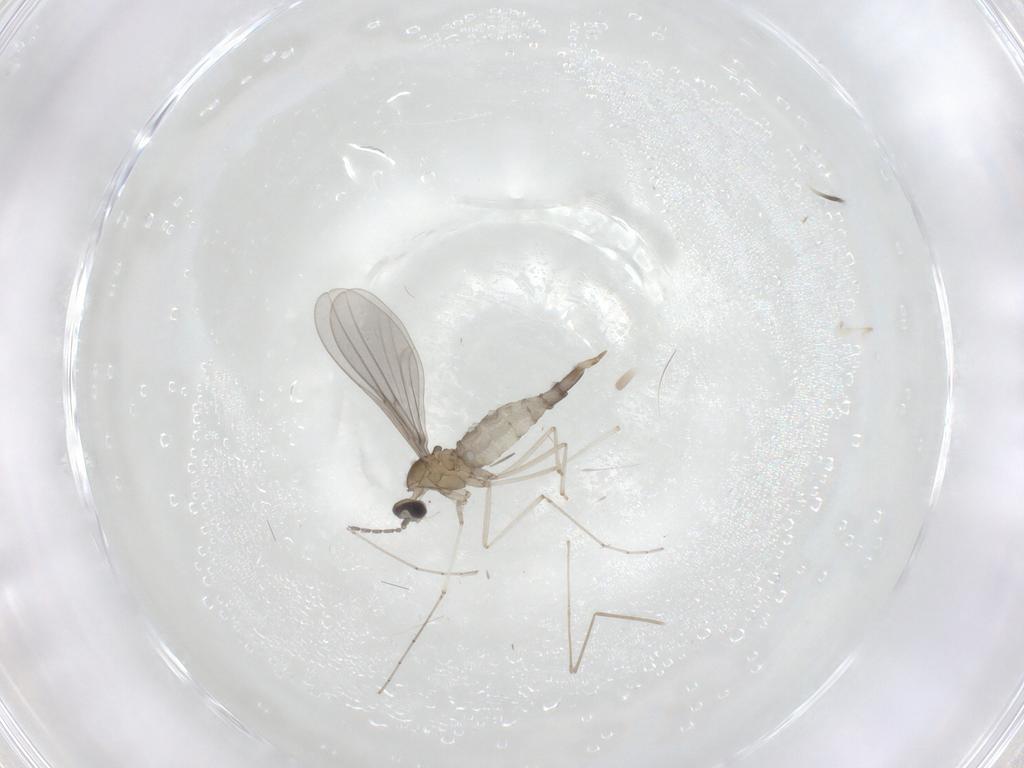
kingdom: Animalia
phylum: Arthropoda
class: Insecta
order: Diptera
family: Cecidomyiidae
